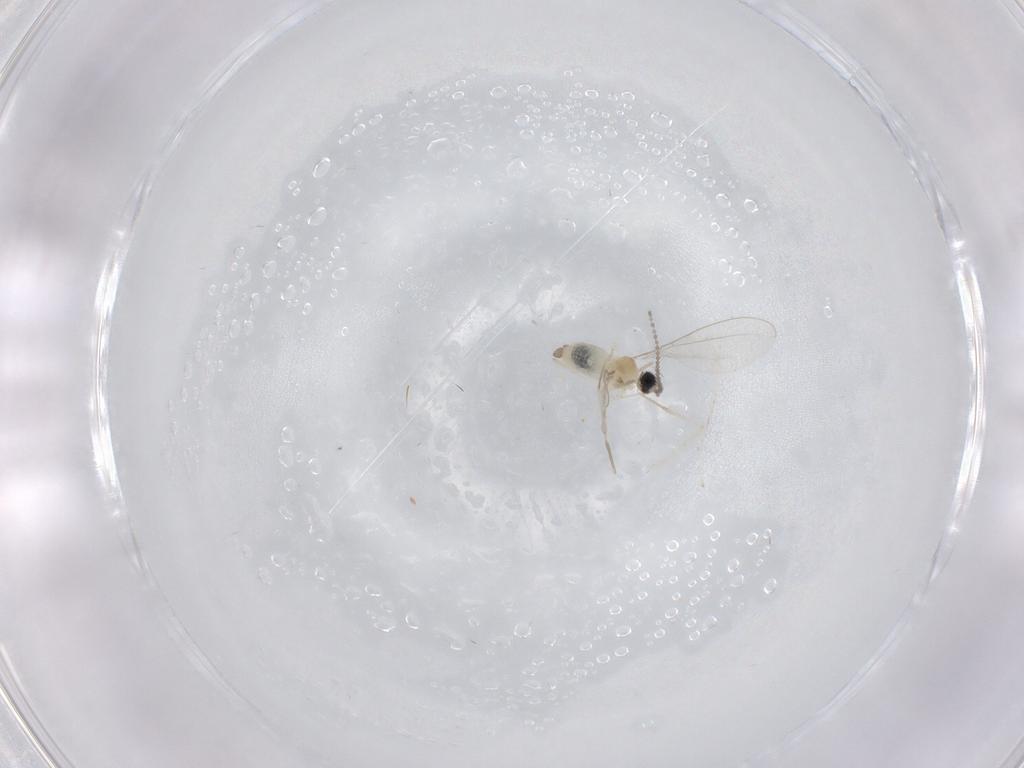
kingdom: Animalia
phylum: Arthropoda
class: Insecta
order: Diptera
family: Cecidomyiidae
